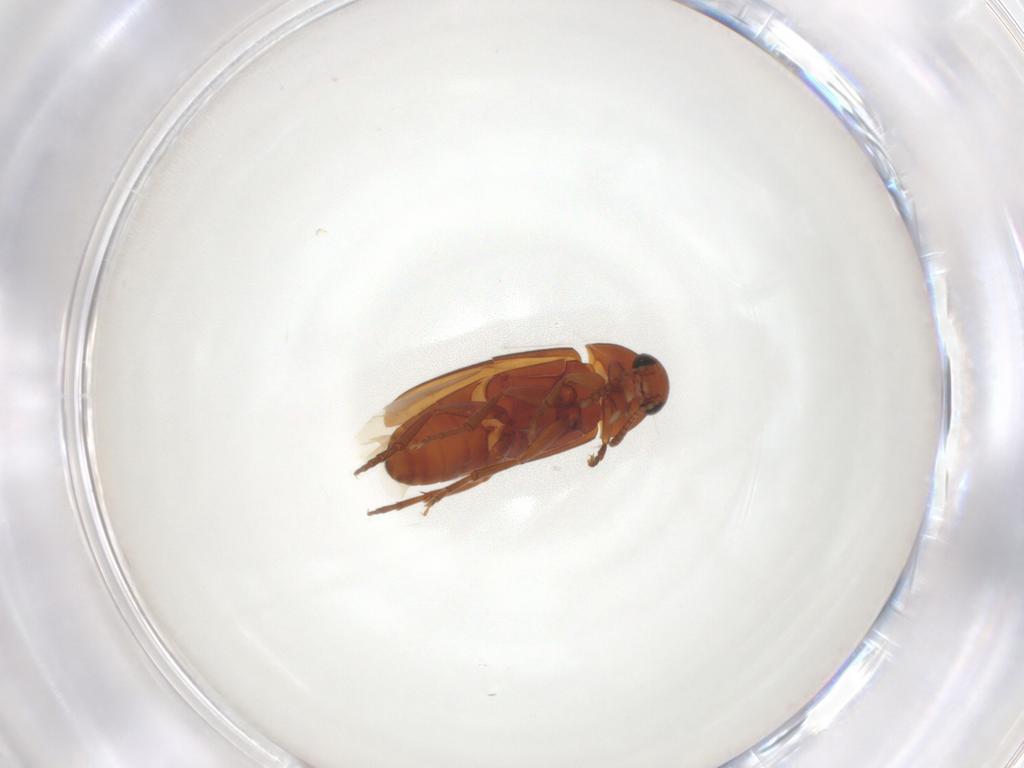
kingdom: Animalia
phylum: Arthropoda
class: Insecta
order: Coleoptera
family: Scraptiidae
